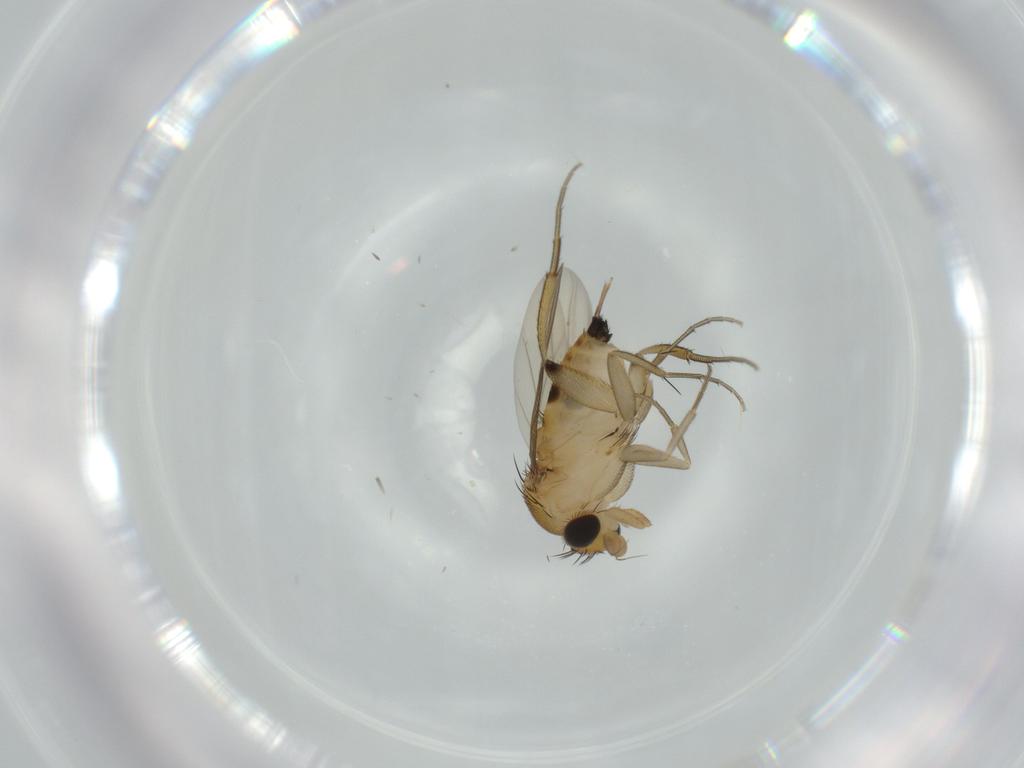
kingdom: Animalia
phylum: Arthropoda
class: Insecta
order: Diptera
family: Phoridae
